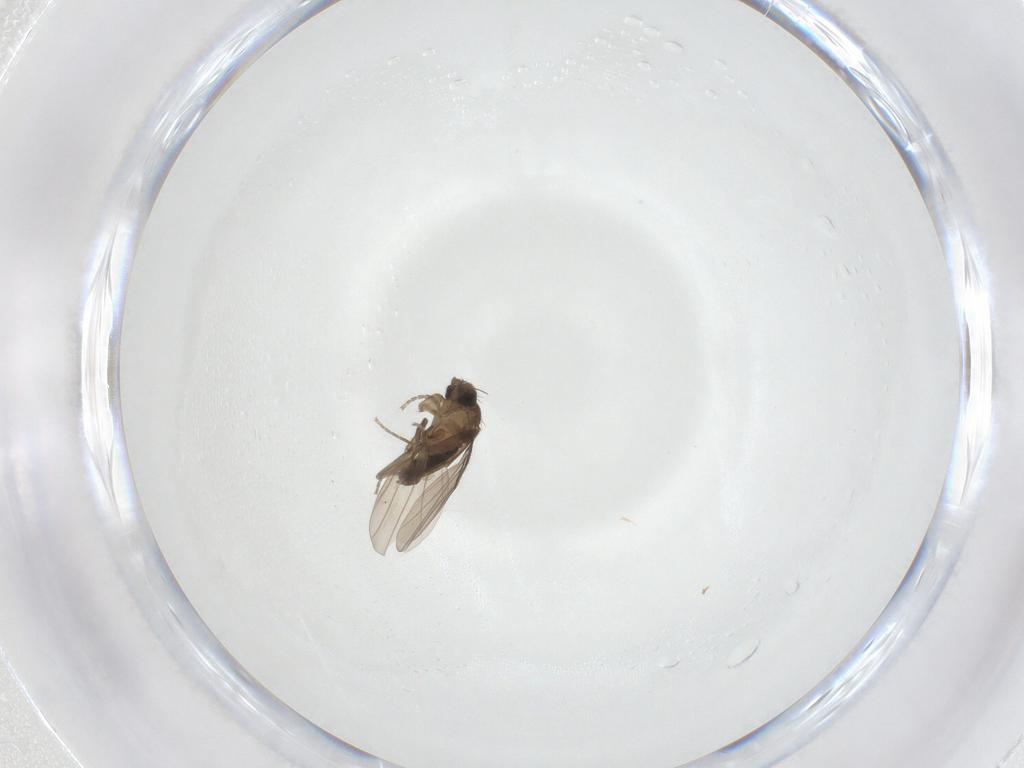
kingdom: Animalia
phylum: Arthropoda
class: Insecta
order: Diptera
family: Phoridae
